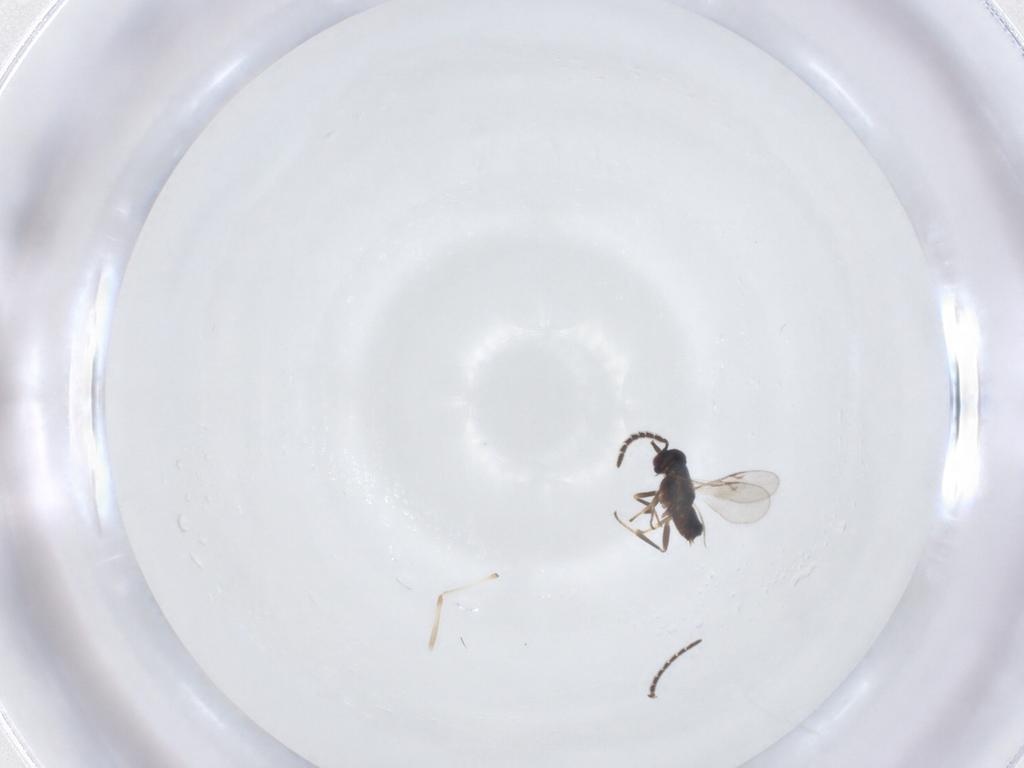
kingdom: Animalia
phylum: Arthropoda
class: Insecta
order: Hymenoptera
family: Encyrtidae
